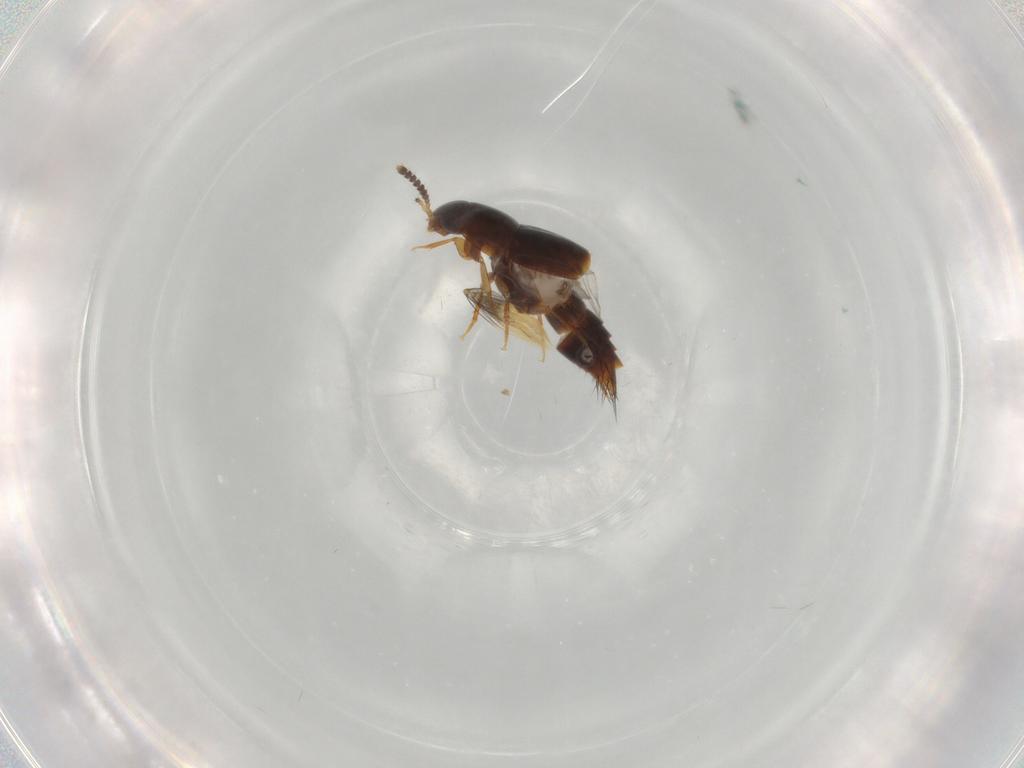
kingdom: Animalia
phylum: Arthropoda
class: Insecta
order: Coleoptera
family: Staphylinidae
